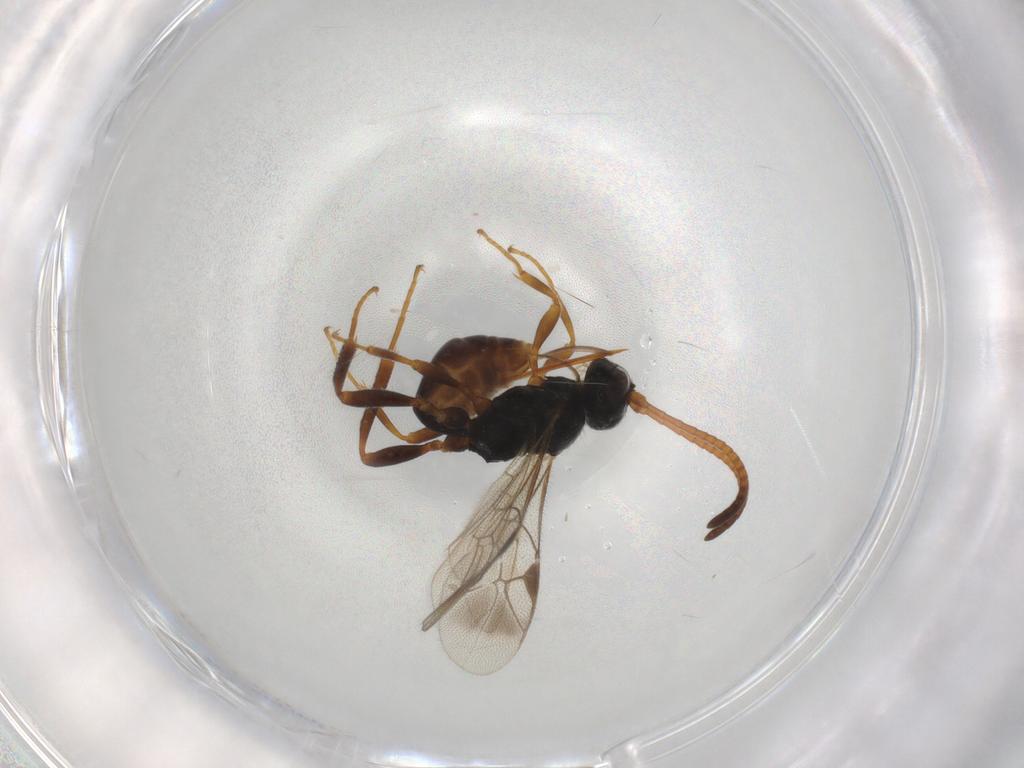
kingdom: Animalia
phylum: Arthropoda
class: Insecta
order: Hymenoptera
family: Ichneumonidae
